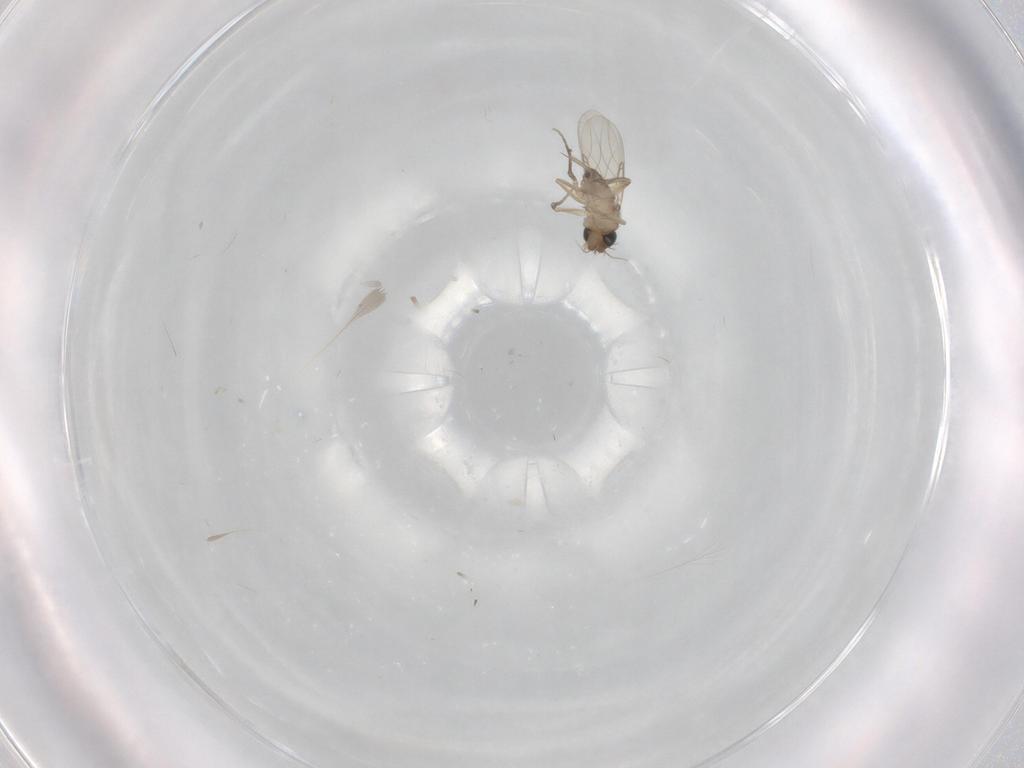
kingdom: Animalia
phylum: Arthropoda
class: Insecta
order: Diptera
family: Phoridae
